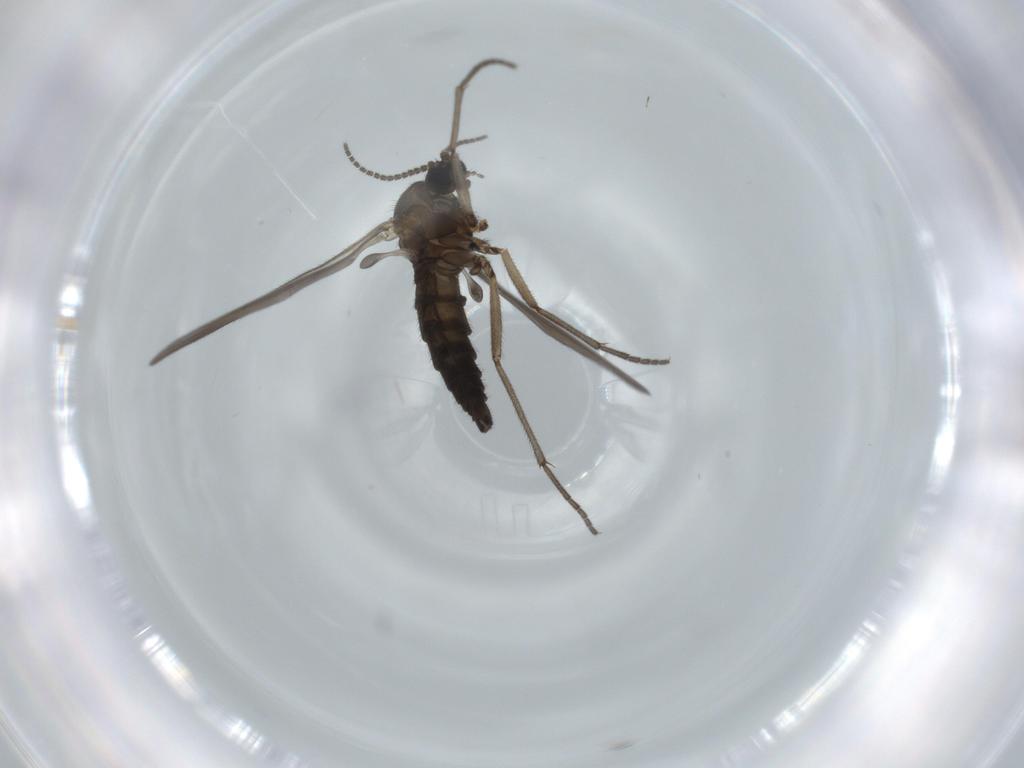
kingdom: Animalia
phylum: Arthropoda
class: Insecta
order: Diptera
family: Sciaridae
